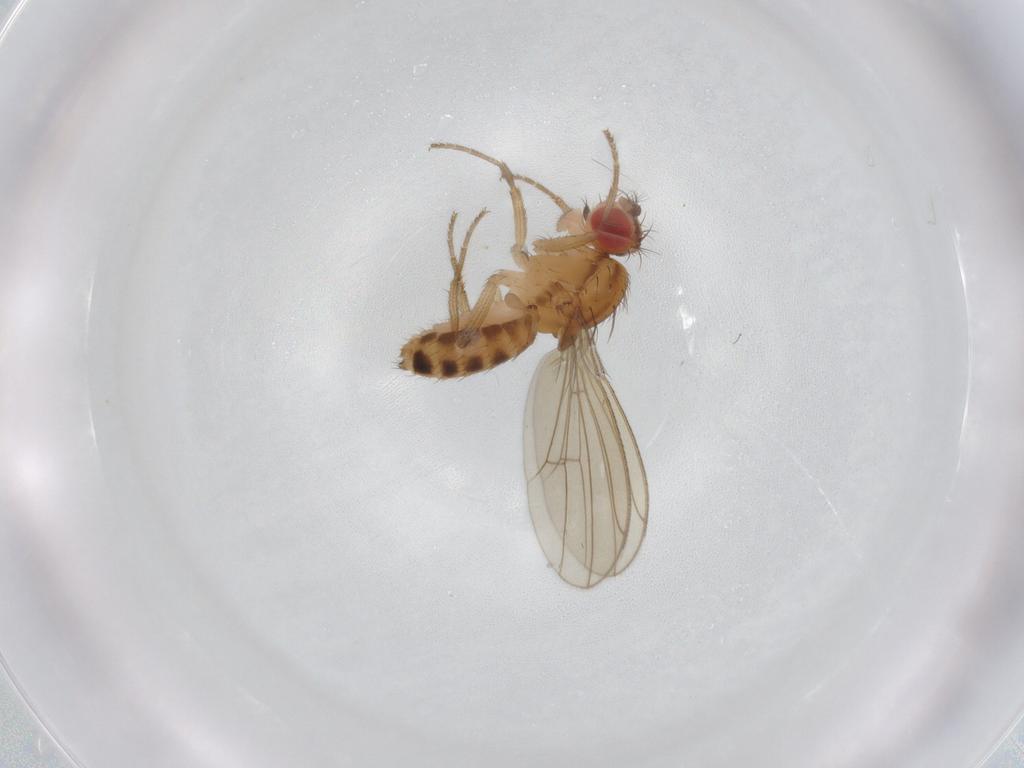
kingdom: Animalia
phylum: Arthropoda
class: Insecta
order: Diptera
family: Drosophilidae
